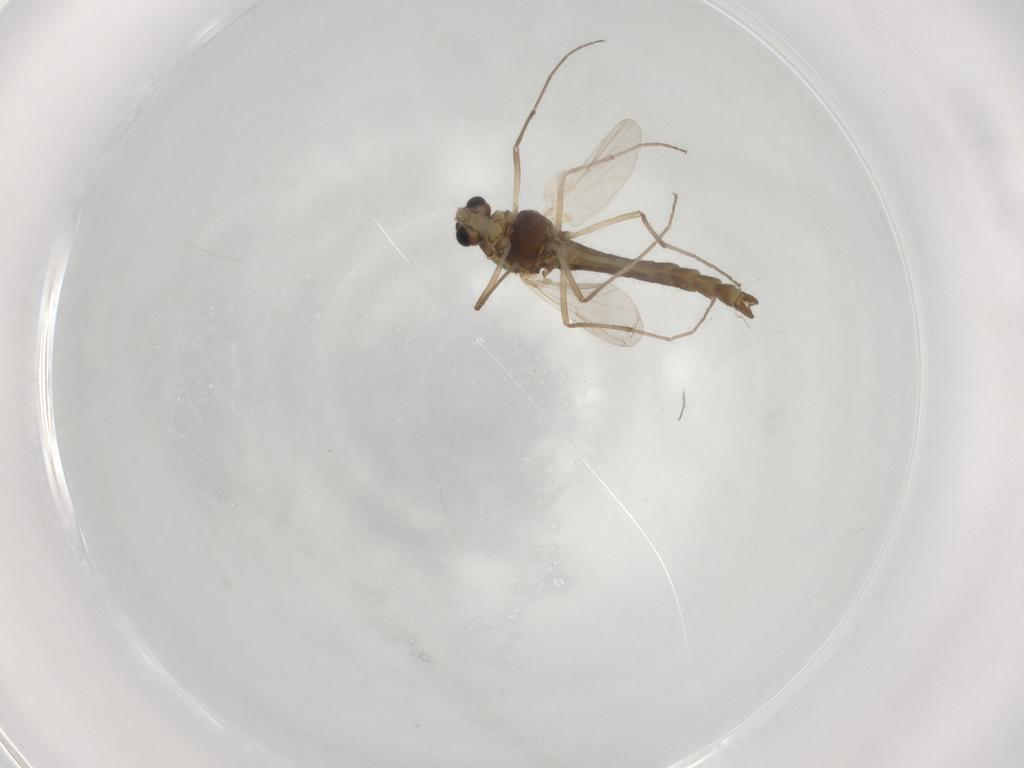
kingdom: Animalia
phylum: Arthropoda
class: Insecta
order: Diptera
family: Chironomidae
